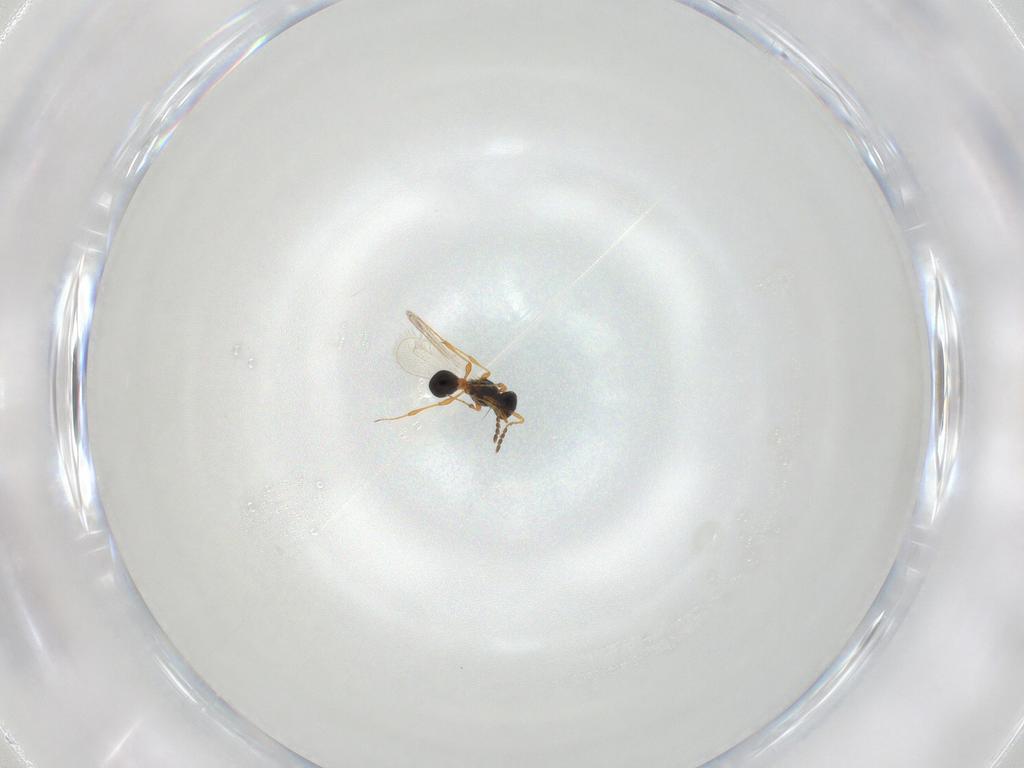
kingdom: Animalia
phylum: Arthropoda
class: Insecta
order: Hymenoptera
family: Platygastridae
